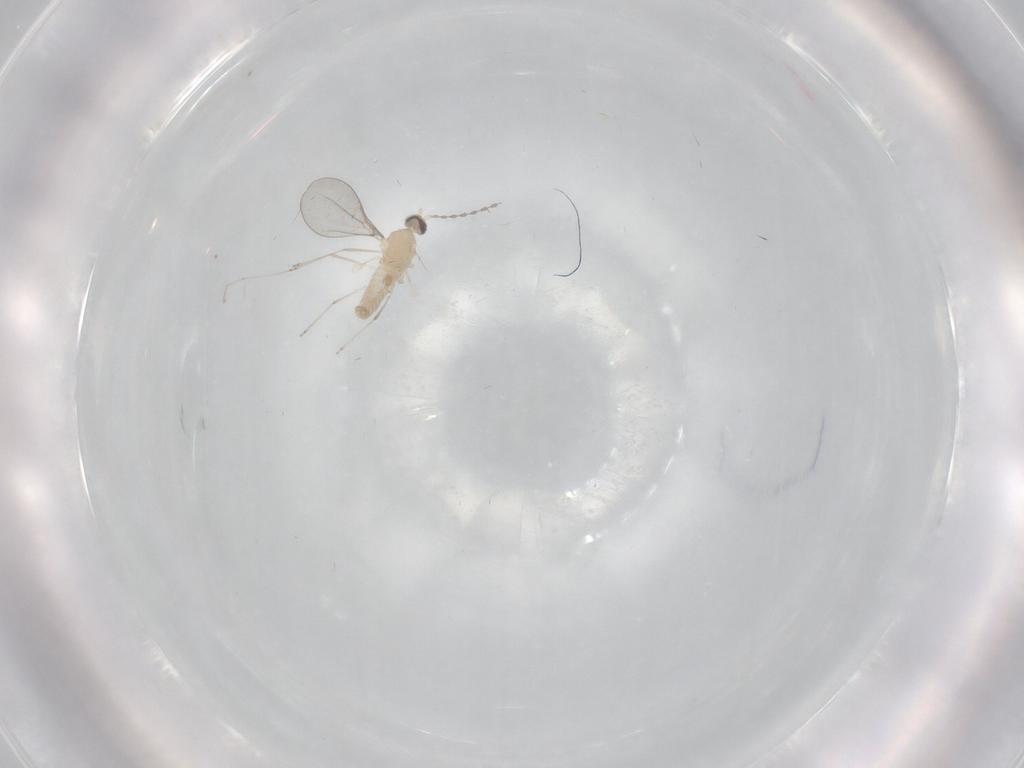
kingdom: Animalia
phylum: Arthropoda
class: Insecta
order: Diptera
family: Cecidomyiidae
